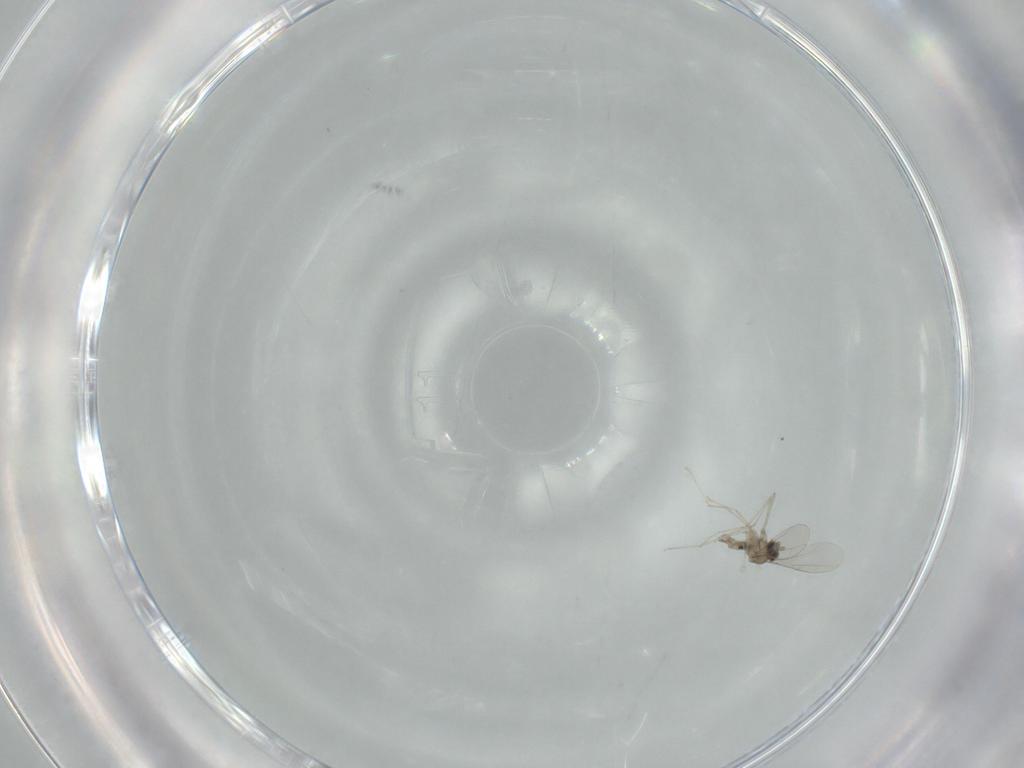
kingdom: Animalia
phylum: Arthropoda
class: Insecta
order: Diptera
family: Cecidomyiidae
